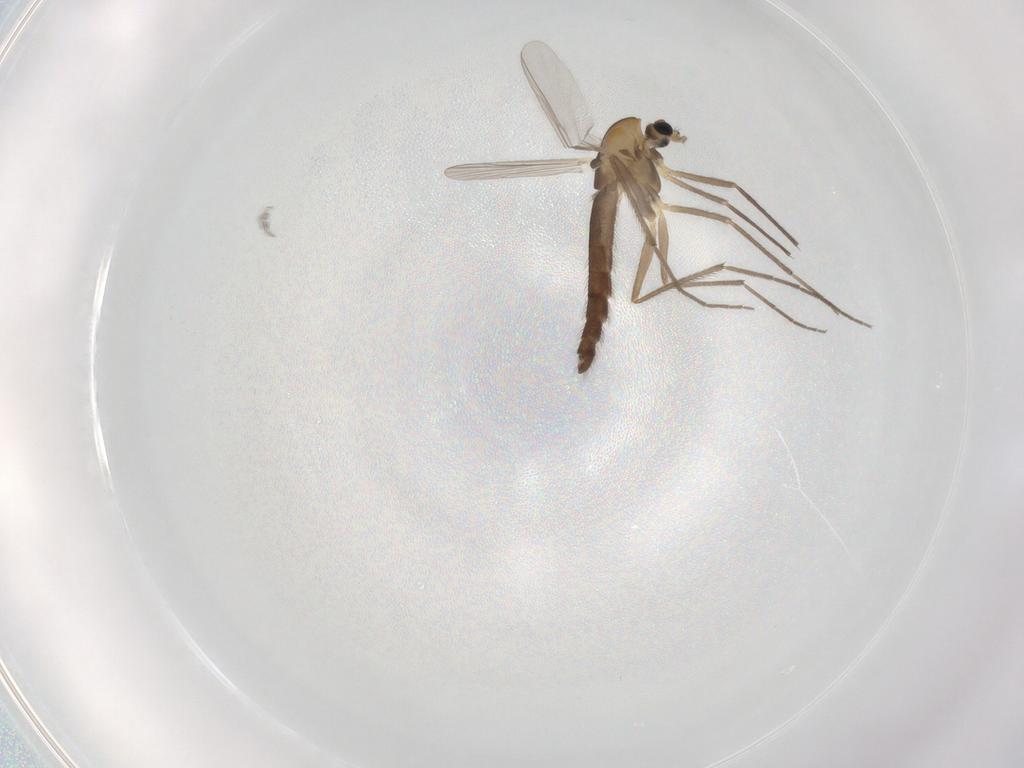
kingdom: Animalia
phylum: Arthropoda
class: Insecta
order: Diptera
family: Chironomidae
